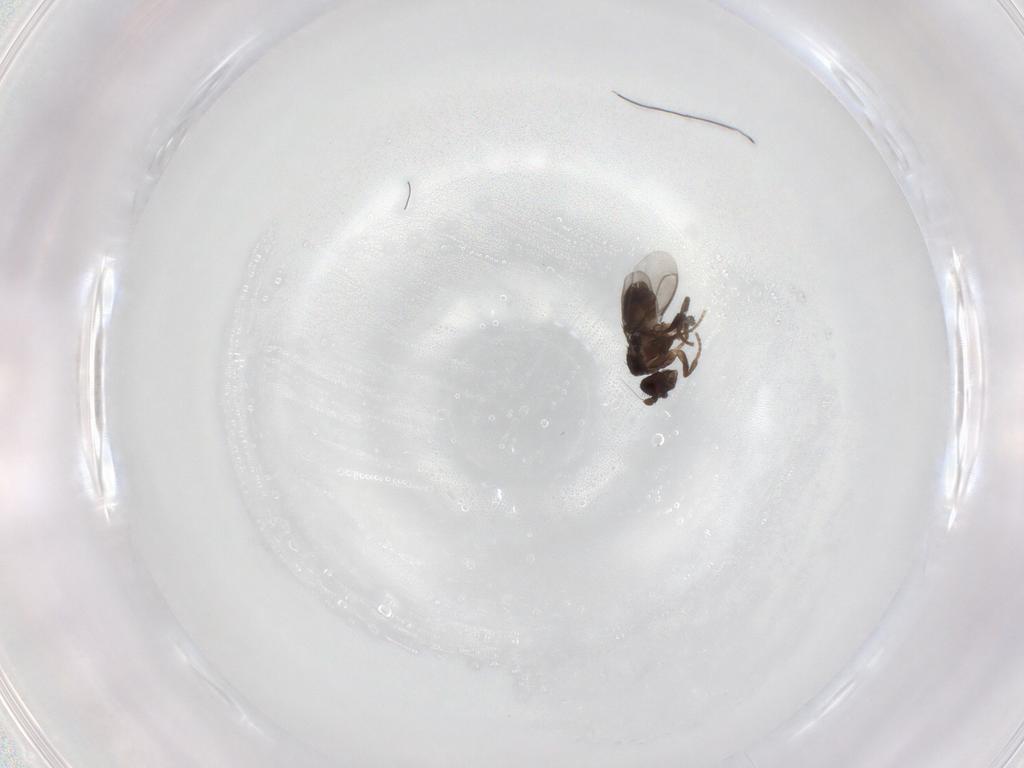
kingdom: Animalia
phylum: Arthropoda
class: Insecta
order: Diptera
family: Sphaeroceridae
